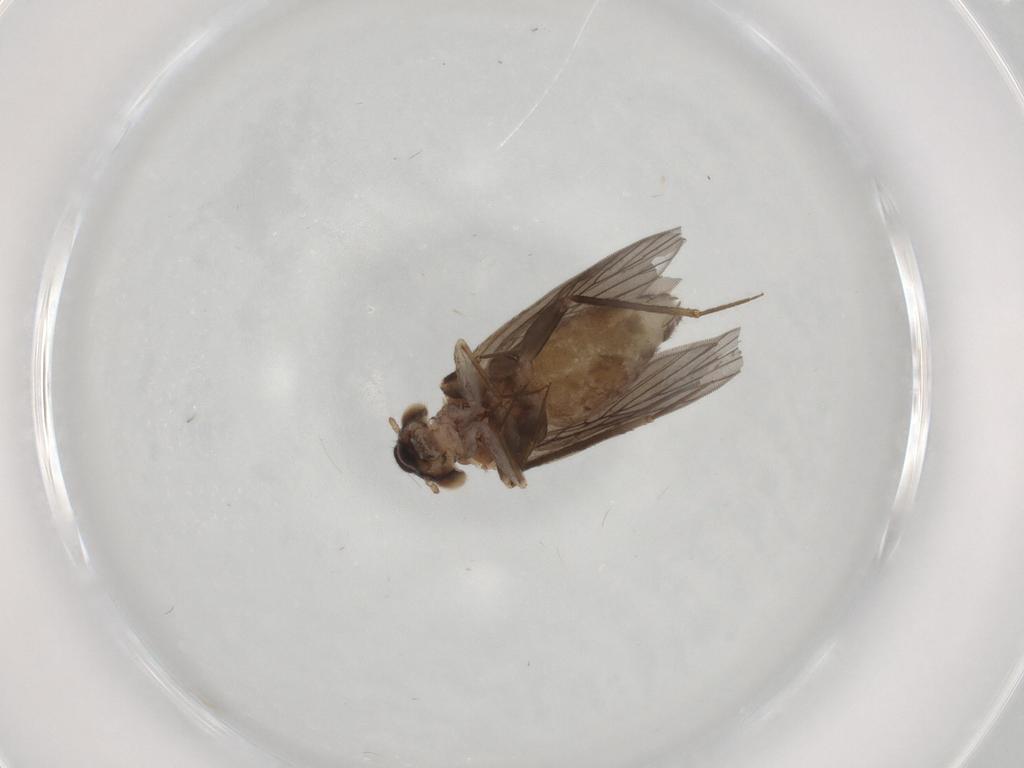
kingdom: Animalia
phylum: Arthropoda
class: Insecta
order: Psocodea
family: Lepidopsocidae
